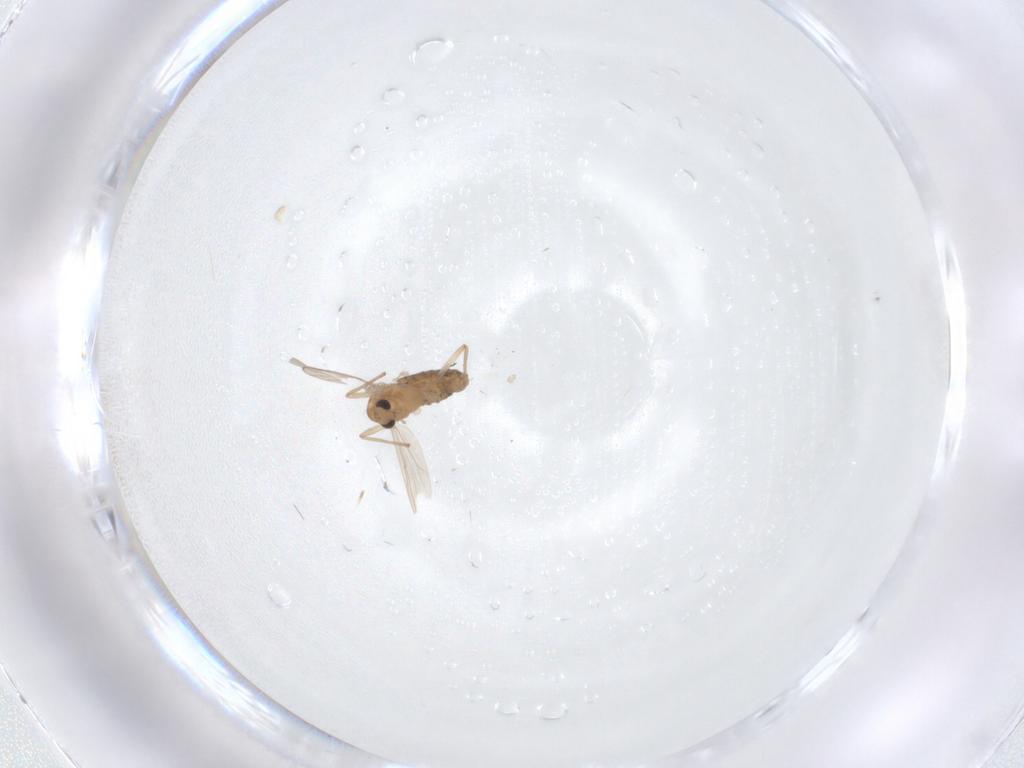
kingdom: Animalia
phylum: Arthropoda
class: Insecta
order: Diptera
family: Chironomidae
